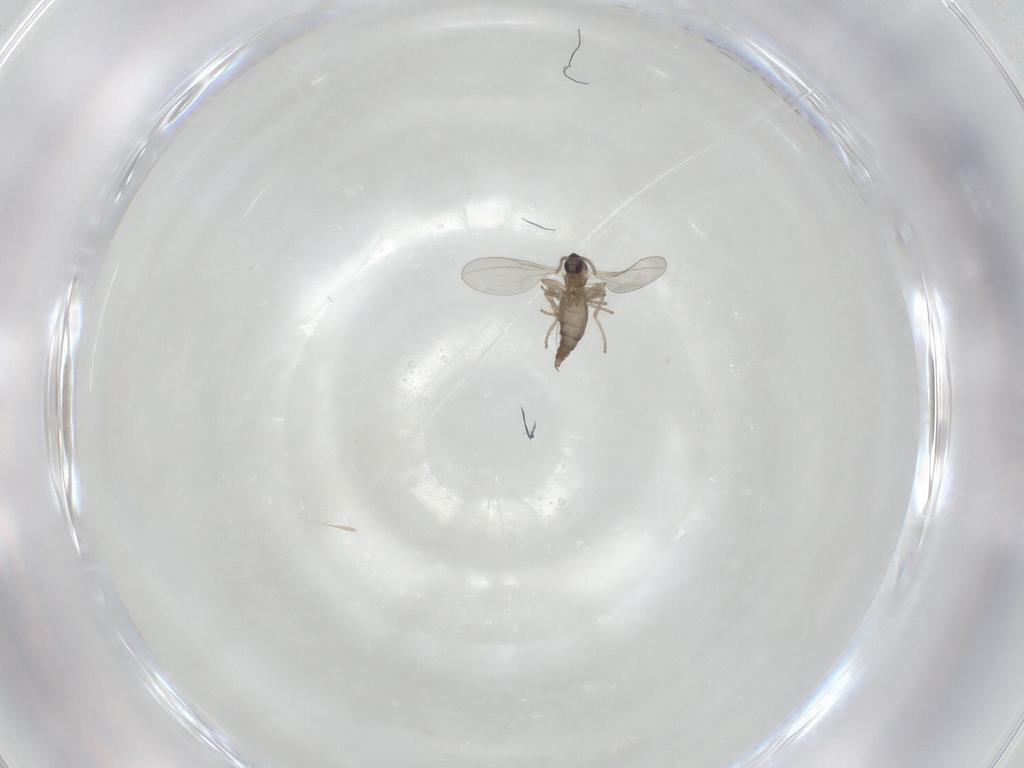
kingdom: Animalia
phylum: Arthropoda
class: Insecta
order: Diptera
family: Cecidomyiidae
